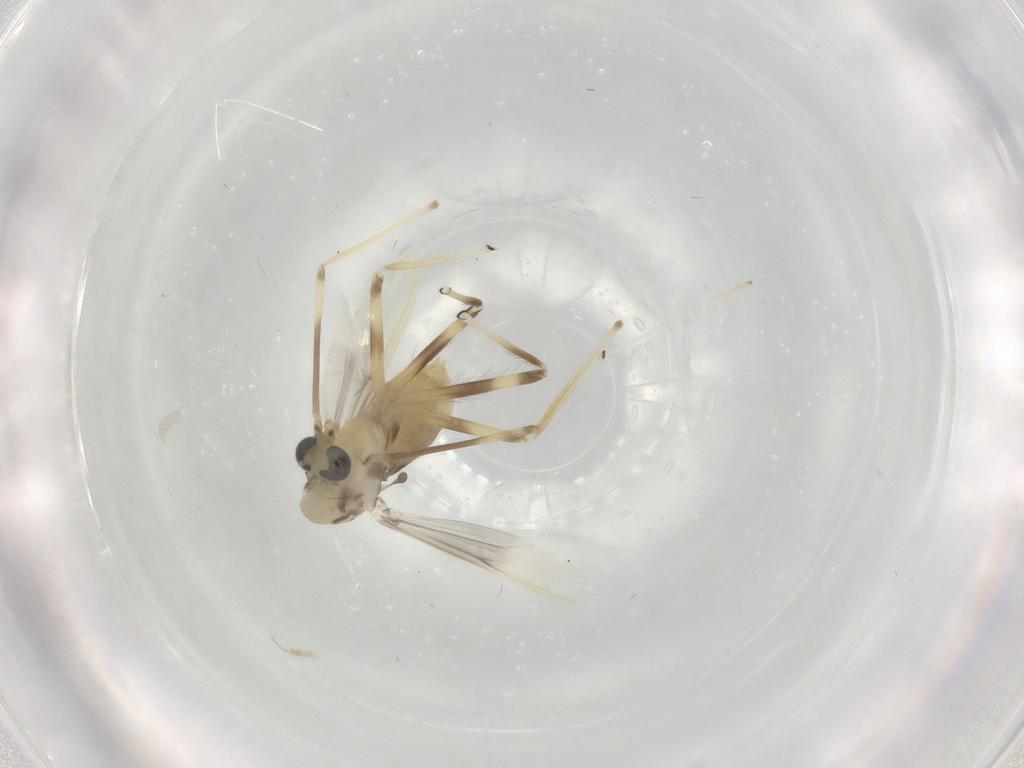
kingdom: Animalia
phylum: Arthropoda
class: Insecta
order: Diptera
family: Chironomidae
